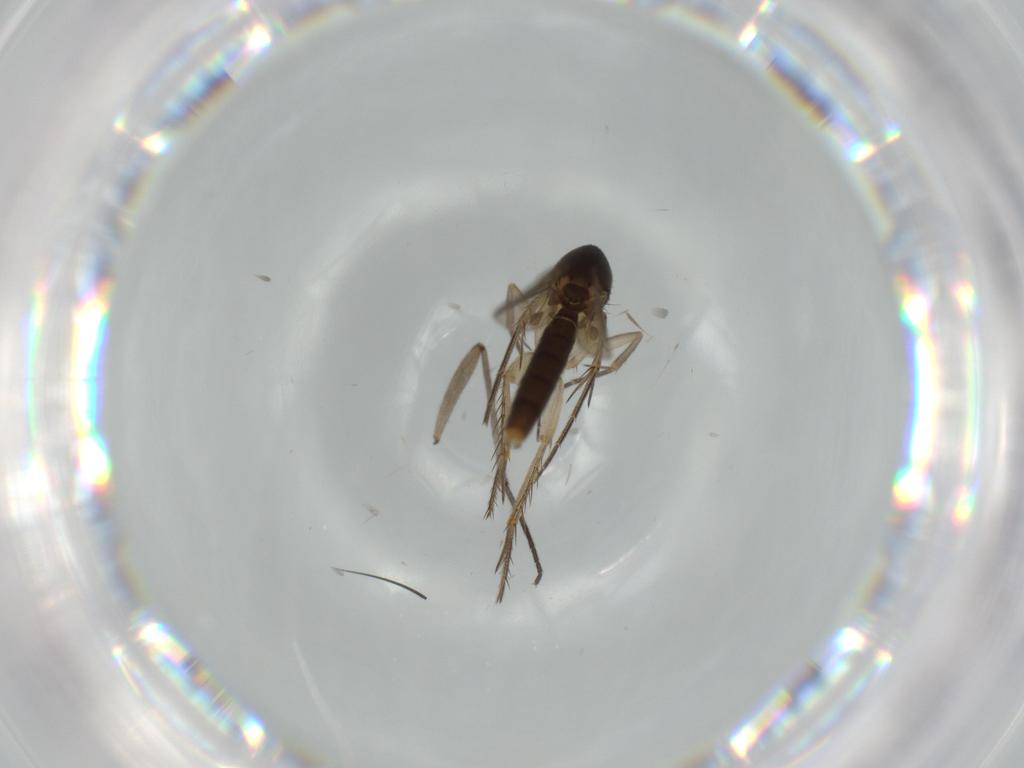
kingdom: Animalia
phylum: Arthropoda
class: Insecta
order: Diptera
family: Mycetophilidae
